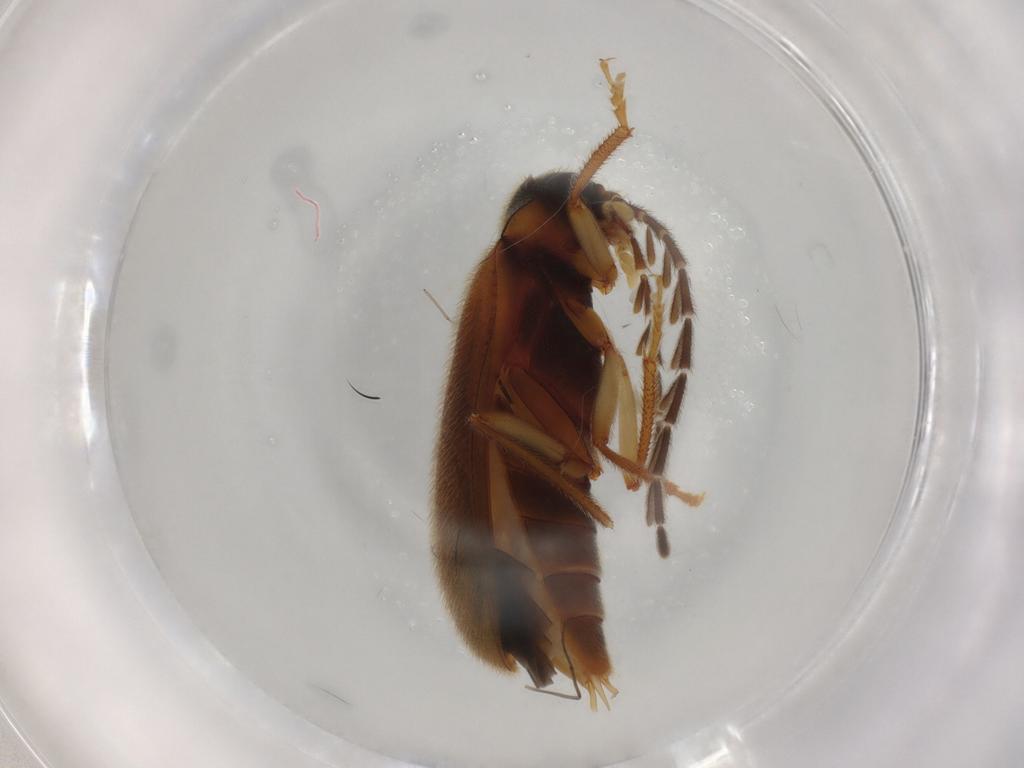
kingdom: Animalia
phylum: Arthropoda
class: Insecta
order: Coleoptera
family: Ptilodactylidae
